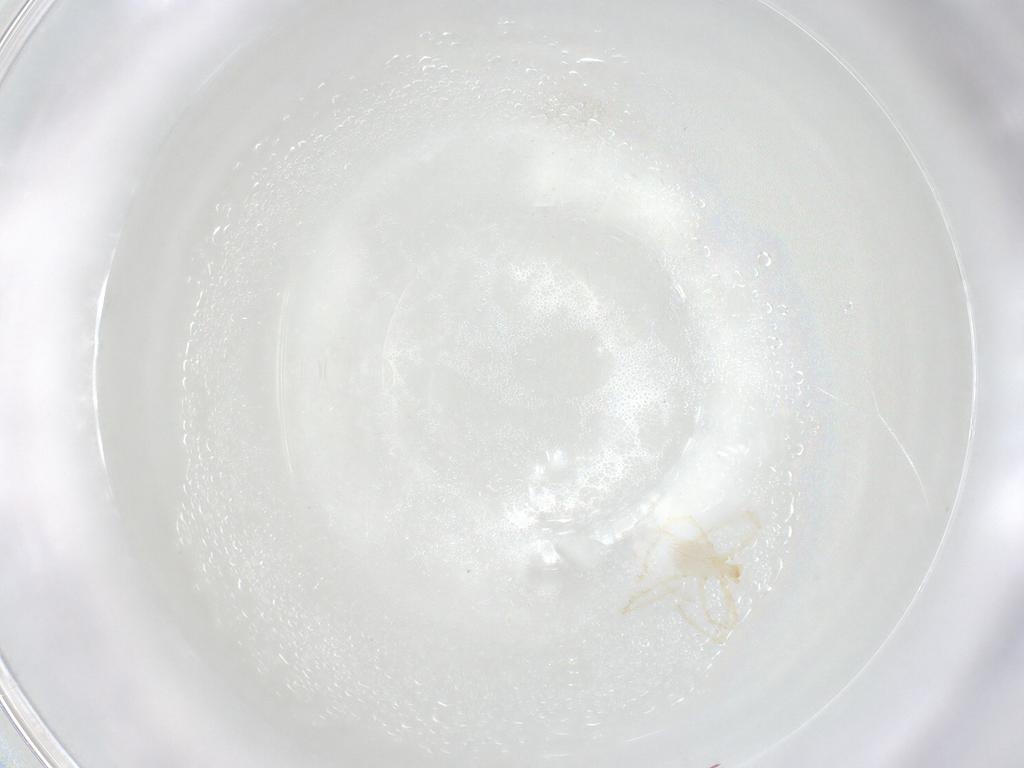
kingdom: Animalia
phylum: Arthropoda
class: Arachnida
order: Trombidiformes
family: Erythraeidae
